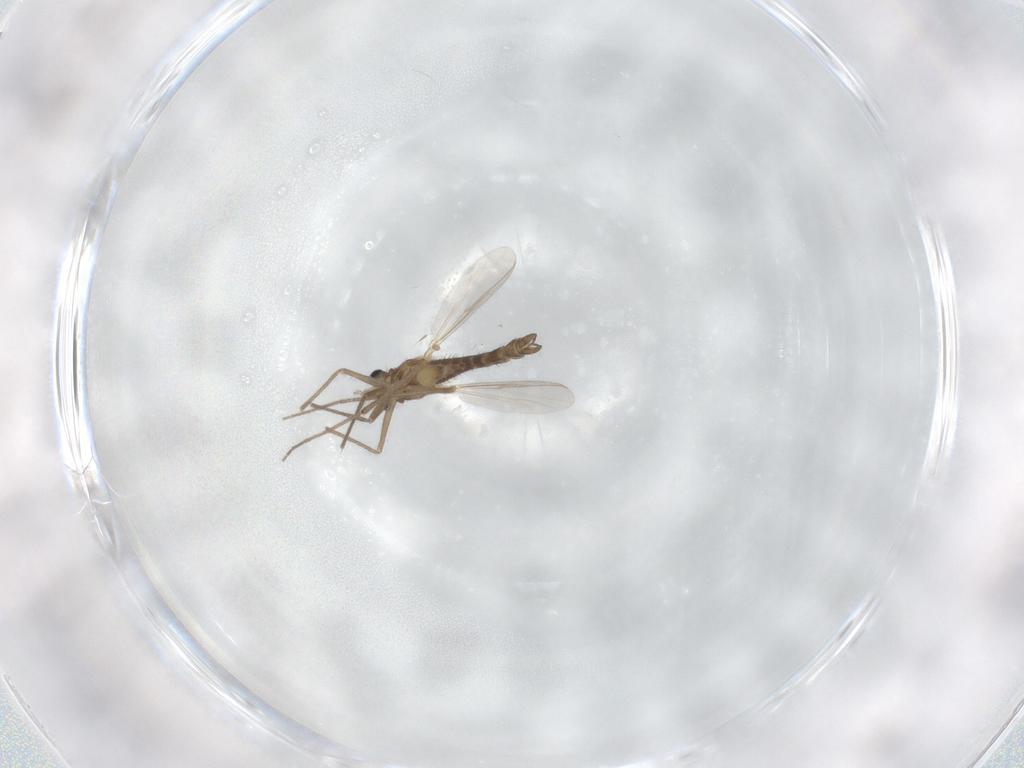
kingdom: Animalia
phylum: Arthropoda
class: Insecta
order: Diptera
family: Chironomidae
